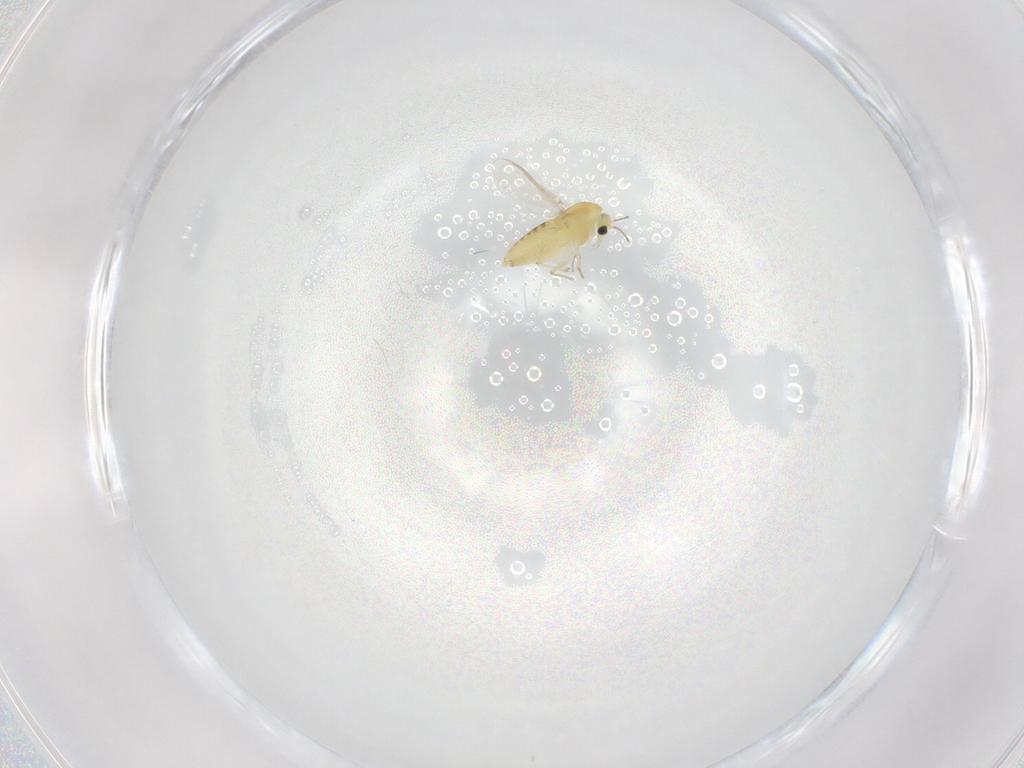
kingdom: Animalia
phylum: Arthropoda
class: Insecta
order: Diptera
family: Chironomidae
